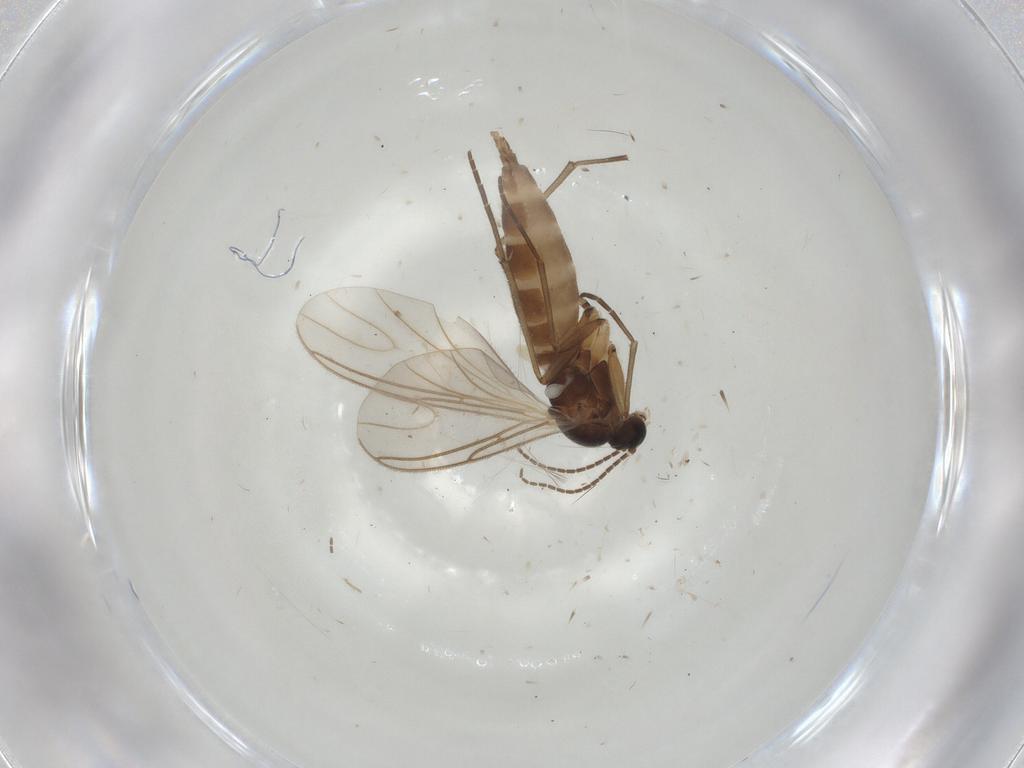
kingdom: Animalia
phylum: Arthropoda
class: Insecta
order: Diptera
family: Sciaridae
